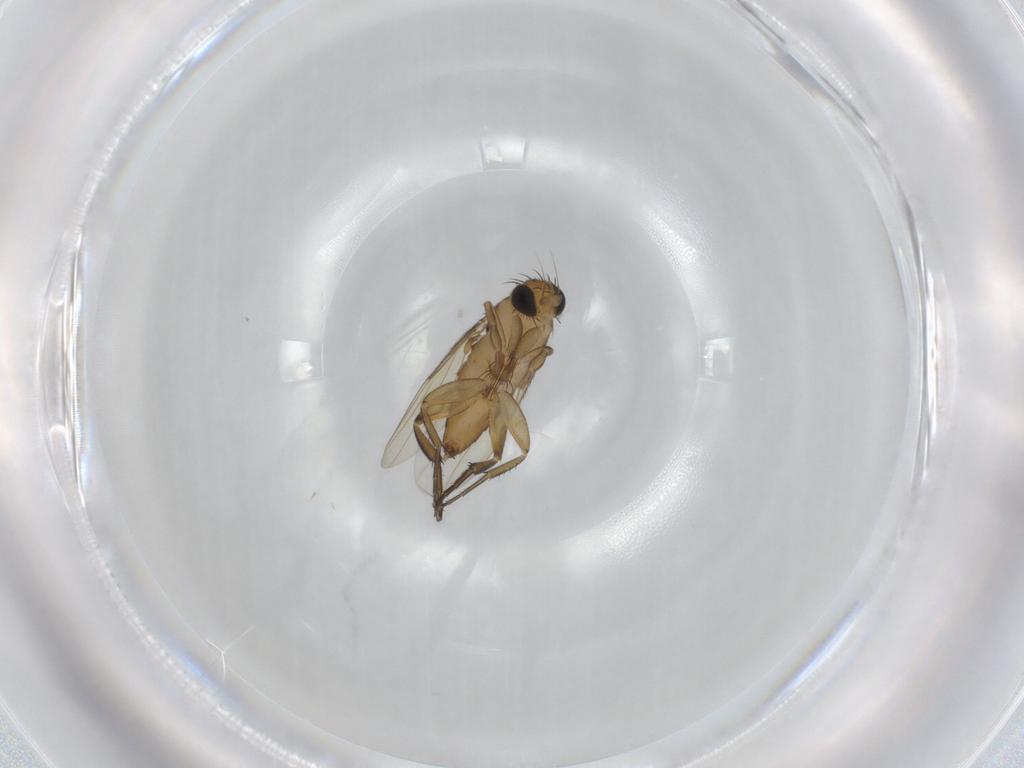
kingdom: Animalia
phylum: Arthropoda
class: Insecta
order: Diptera
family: Phoridae
